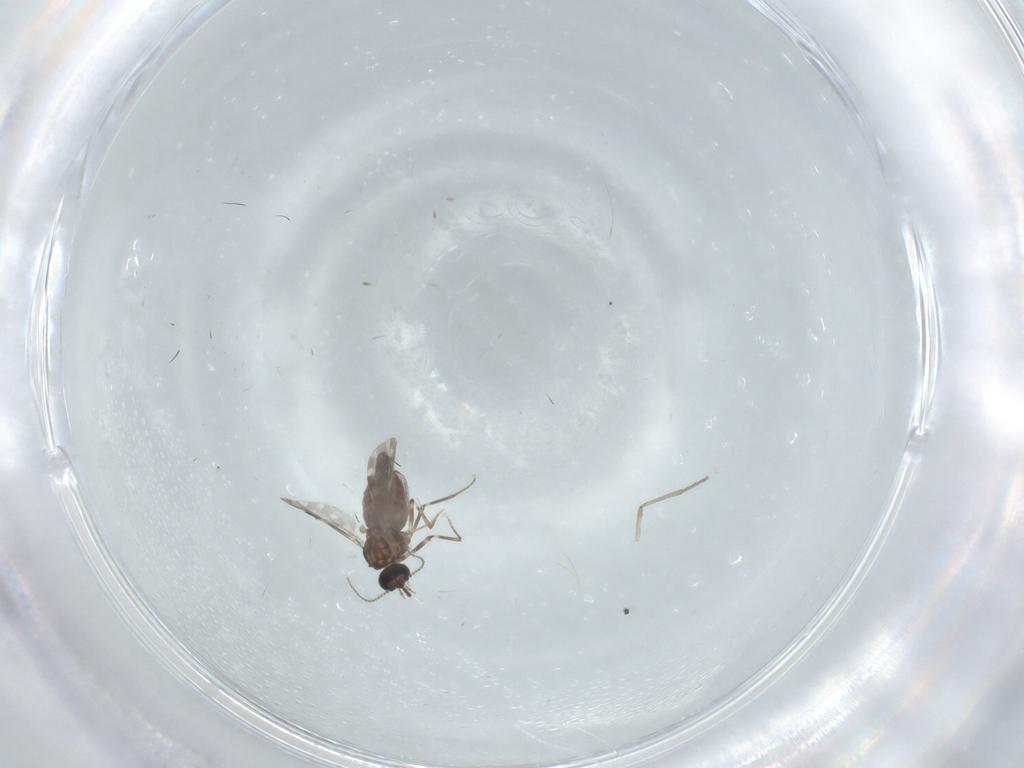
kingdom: Animalia
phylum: Arthropoda
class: Insecta
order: Diptera
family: Ceratopogonidae
